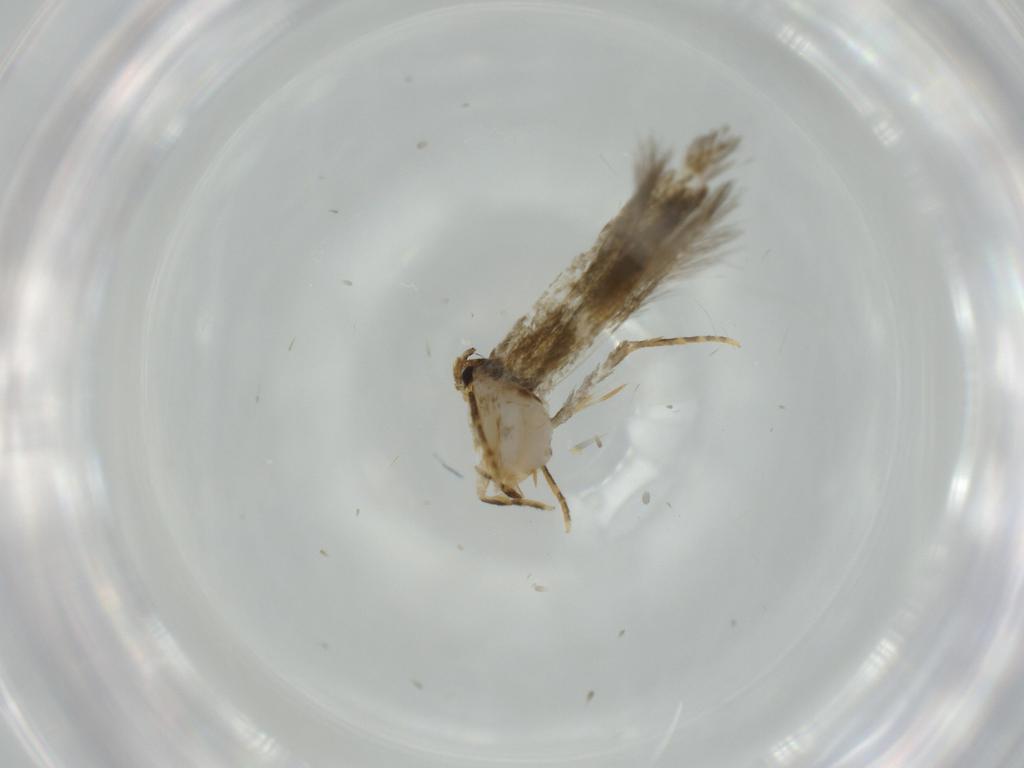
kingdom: Animalia
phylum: Arthropoda
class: Insecta
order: Lepidoptera
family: Tineidae
